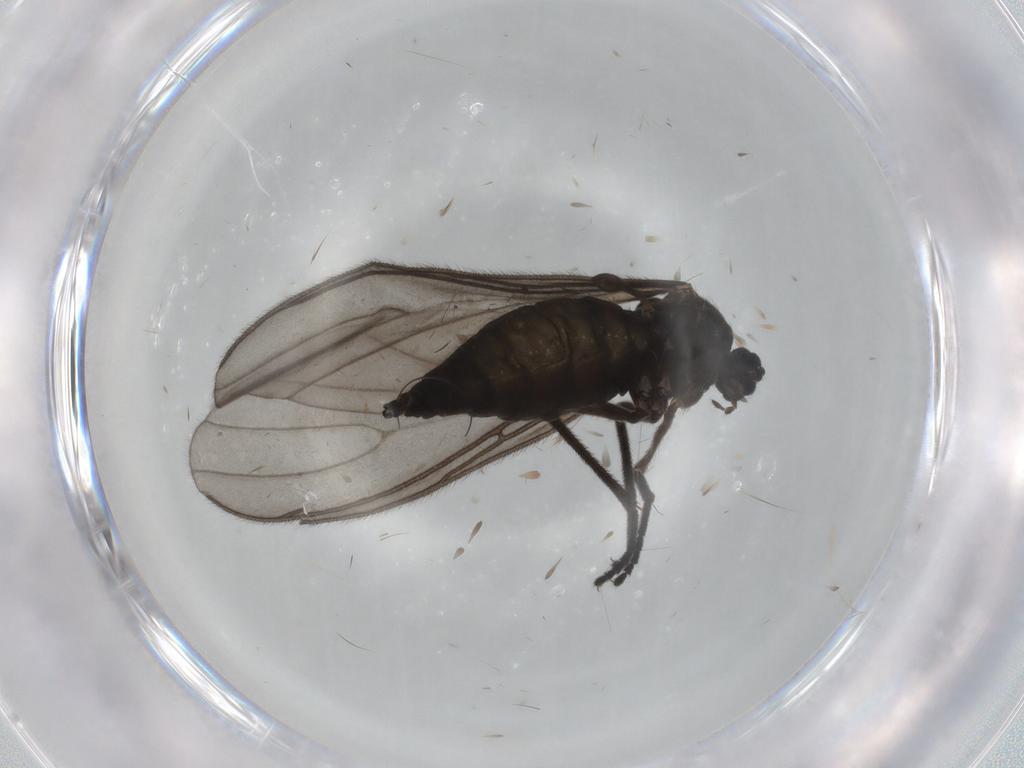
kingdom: Animalia
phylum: Arthropoda
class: Insecta
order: Diptera
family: Sciaridae
